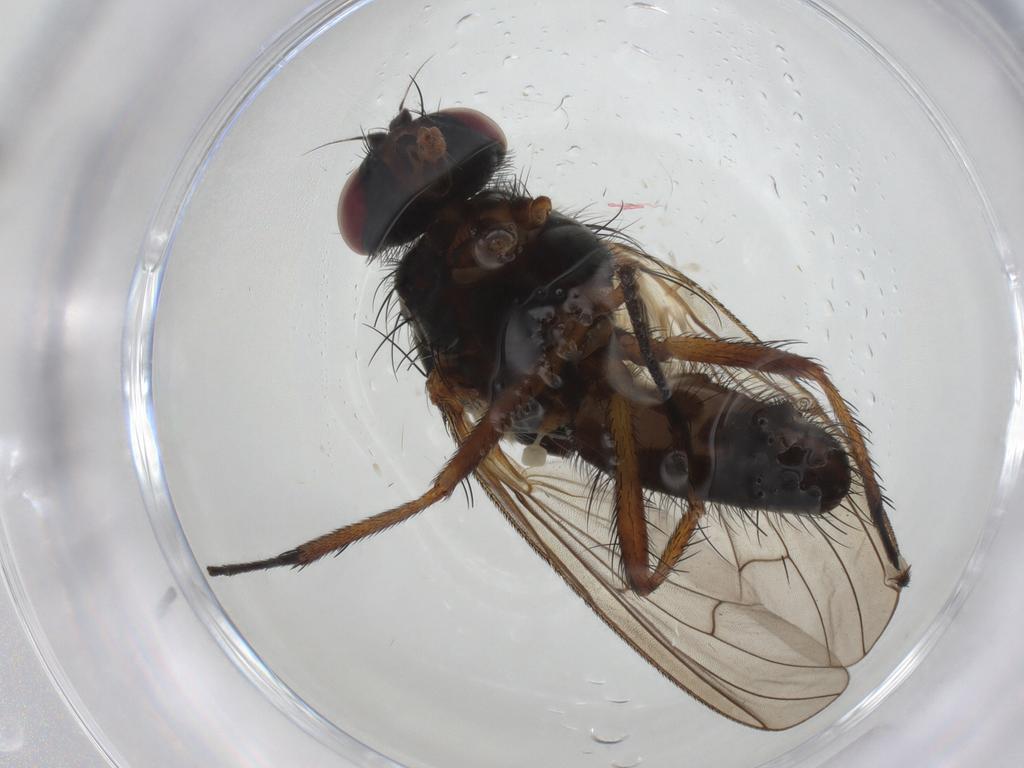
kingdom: Animalia
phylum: Arthropoda
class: Insecta
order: Diptera
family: Anthomyiidae
